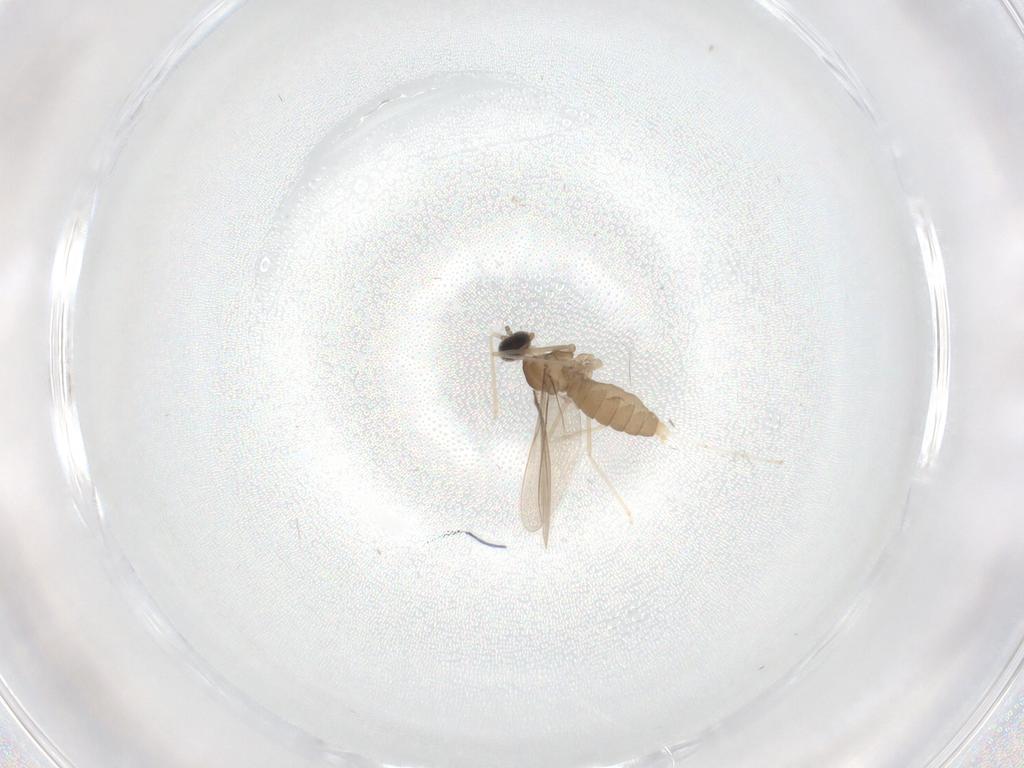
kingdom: Animalia
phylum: Arthropoda
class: Insecta
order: Diptera
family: Cecidomyiidae
